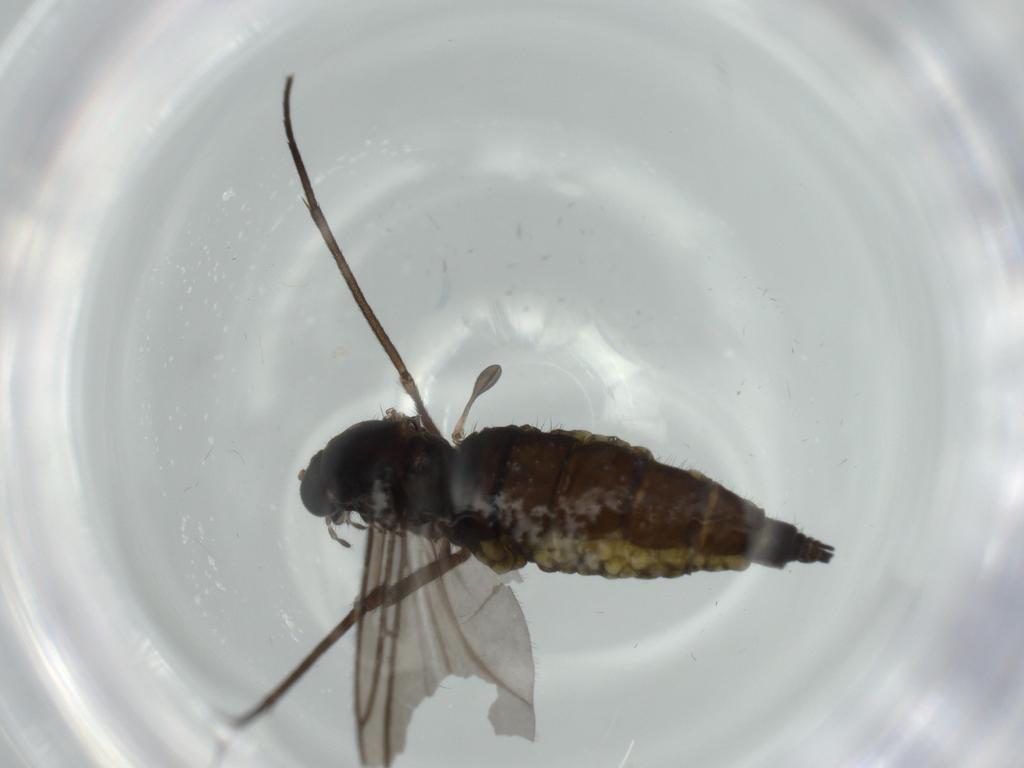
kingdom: Animalia
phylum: Arthropoda
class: Insecta
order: Diptera
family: Sciaridae
